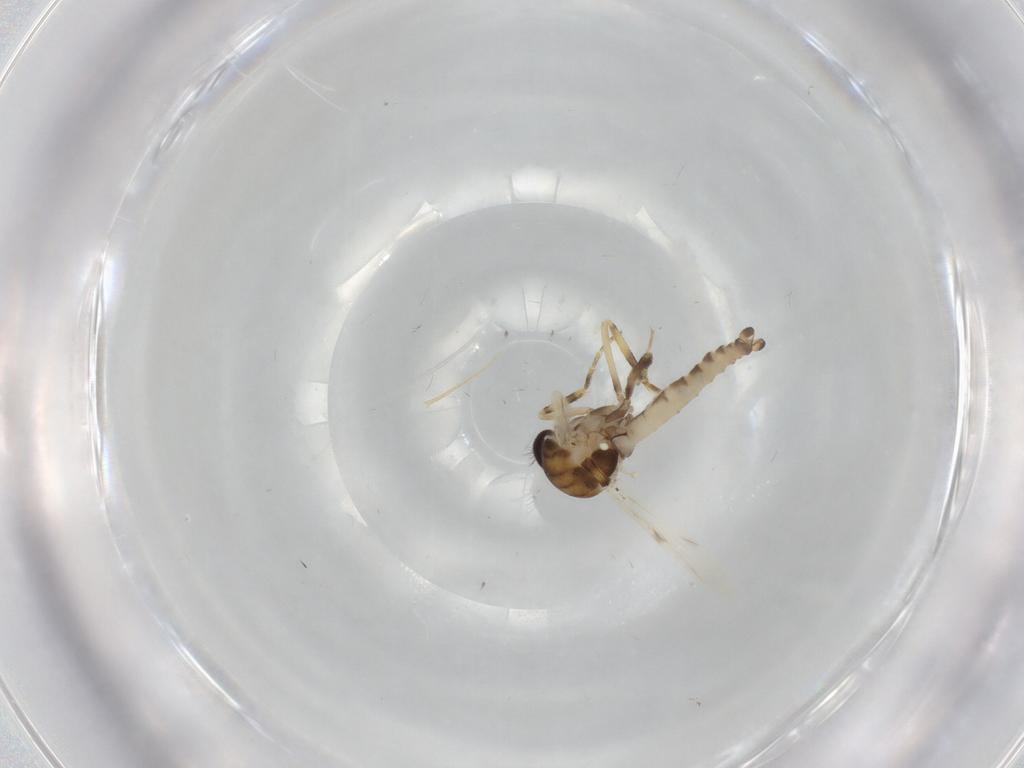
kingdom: Animalia
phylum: Arthropoda
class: Insecta
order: Diptera
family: Ceratopogonidae
